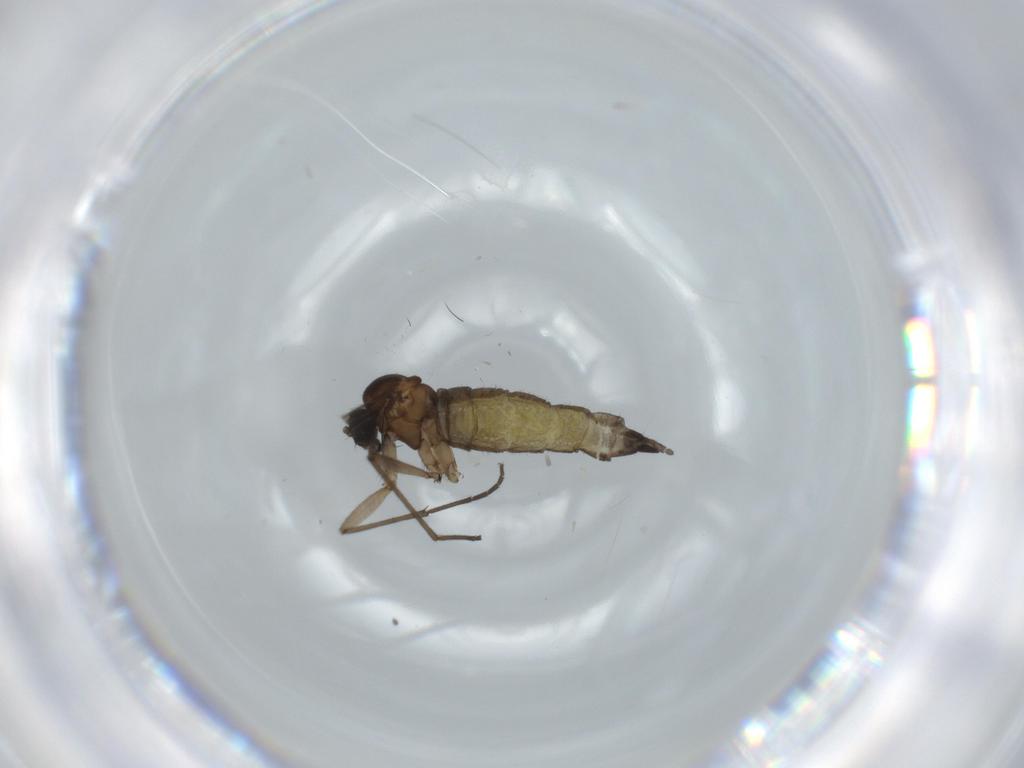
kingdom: Animalia
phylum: Arthropoda
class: Insecta
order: Diptera
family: Sciaridae
